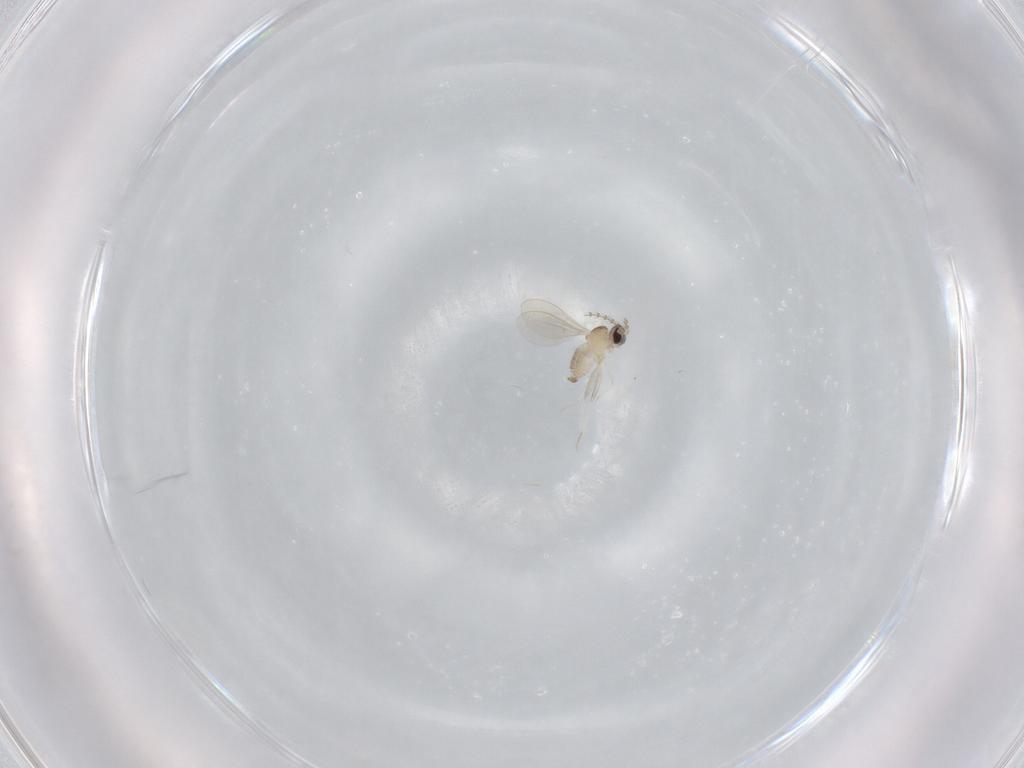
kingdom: Animalia
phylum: Arthropoda
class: Insecta
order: Diptera
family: Cecidomyiidae
